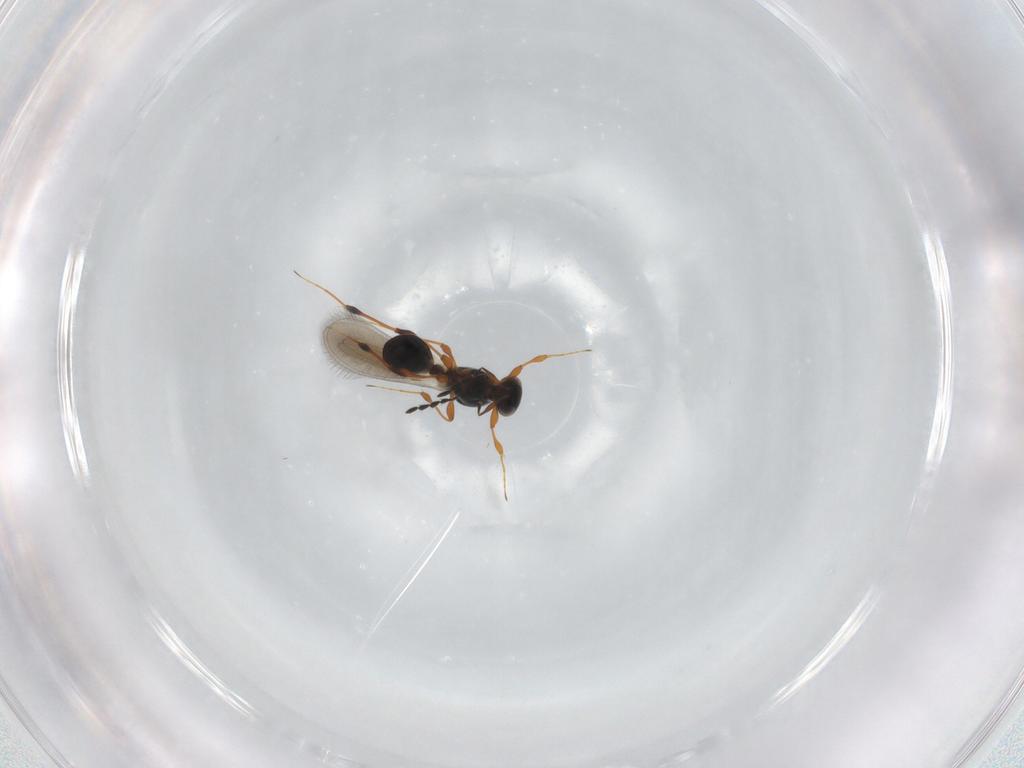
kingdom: Animalia
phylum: Arthropoda
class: Insecta
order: Hymenoptera
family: Platygastridae
